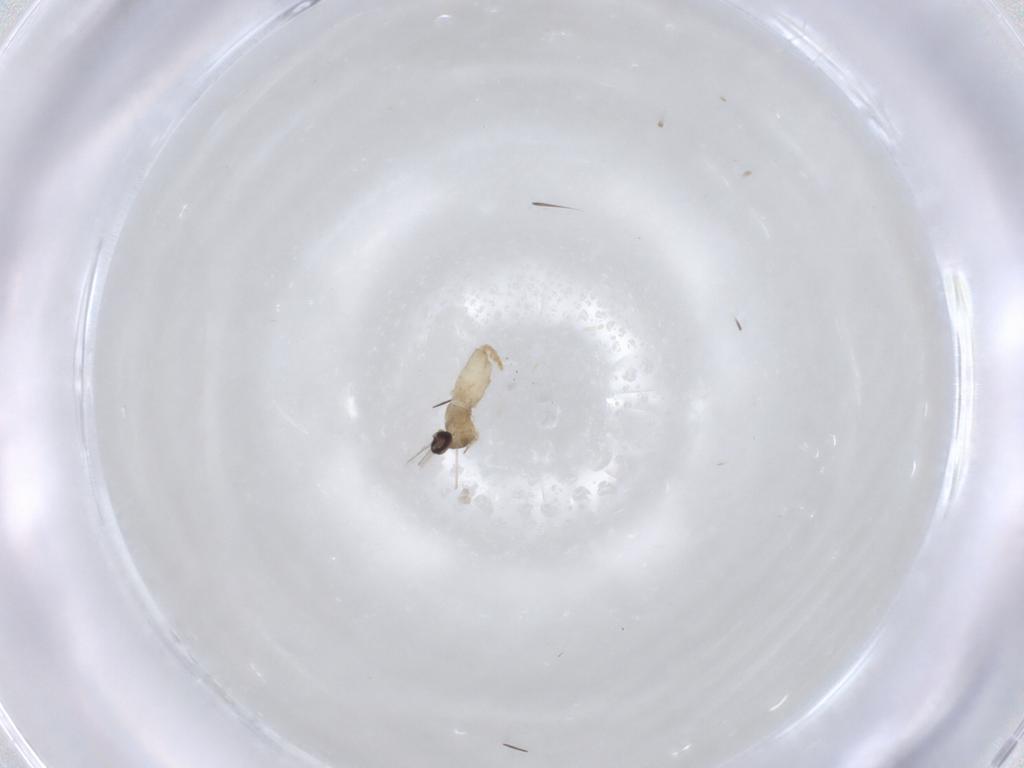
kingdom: Animalia
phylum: Arthropoda
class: Insecta
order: Diptera
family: Cecidomyiidae
